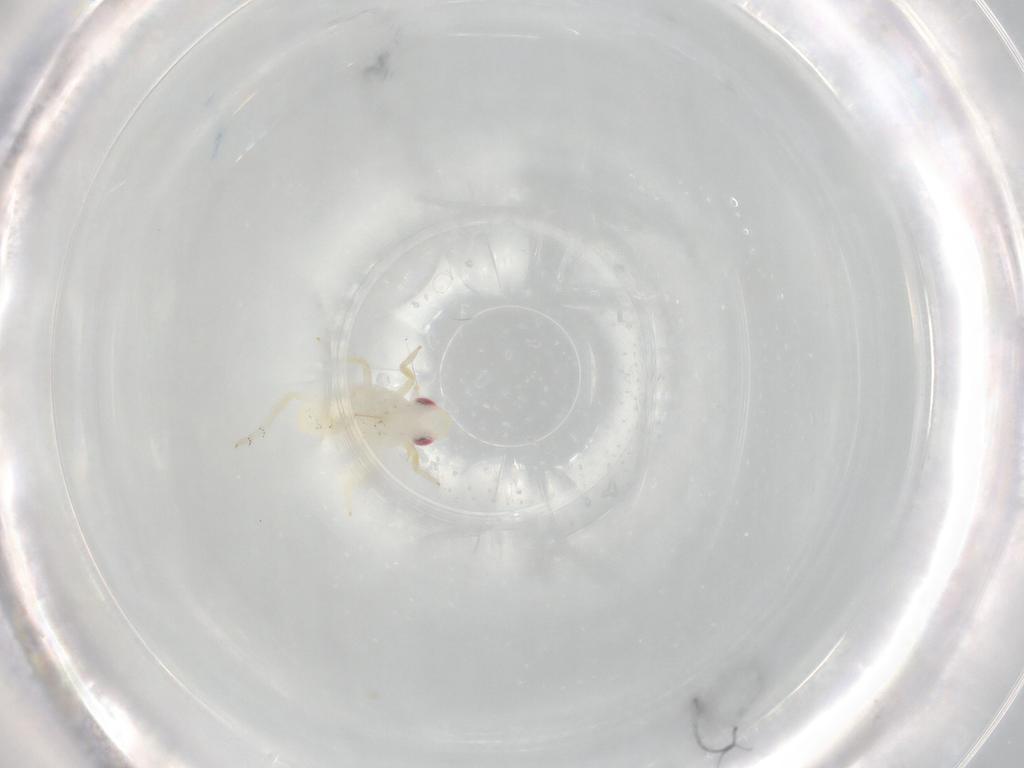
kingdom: Animalia
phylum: Arthropoda
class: Insecta
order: Hemiptera
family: Tropiduchidae
